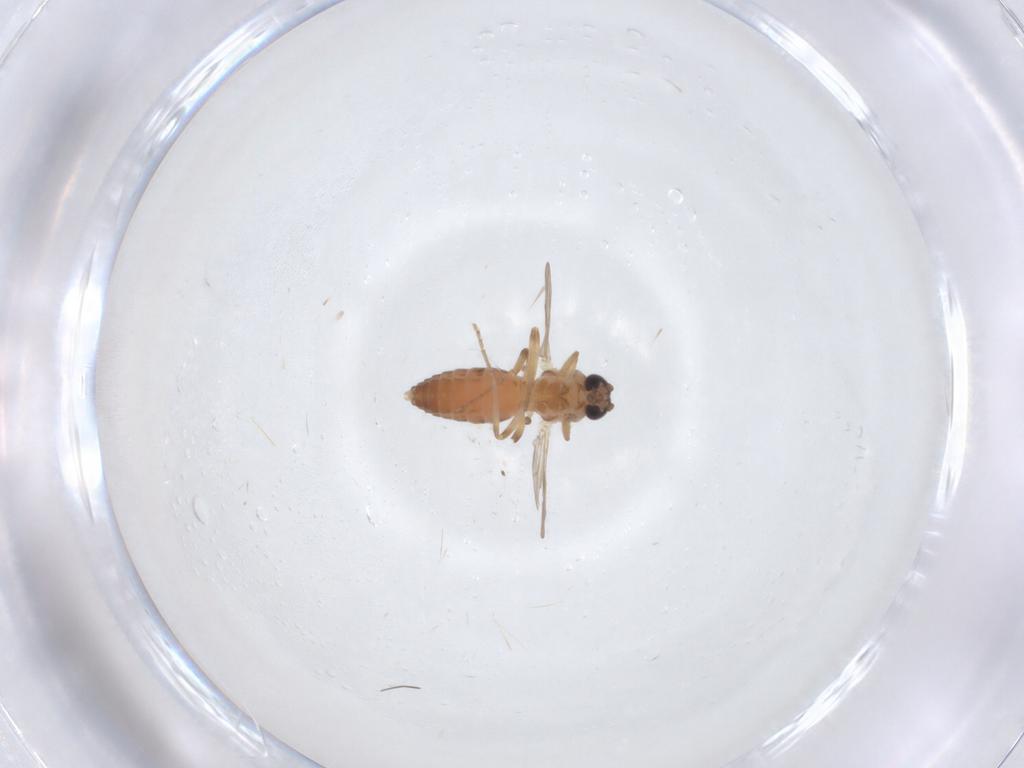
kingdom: Animalia
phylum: Arthropoda
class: Insecta
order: Diptera
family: Ceratopogonidae
